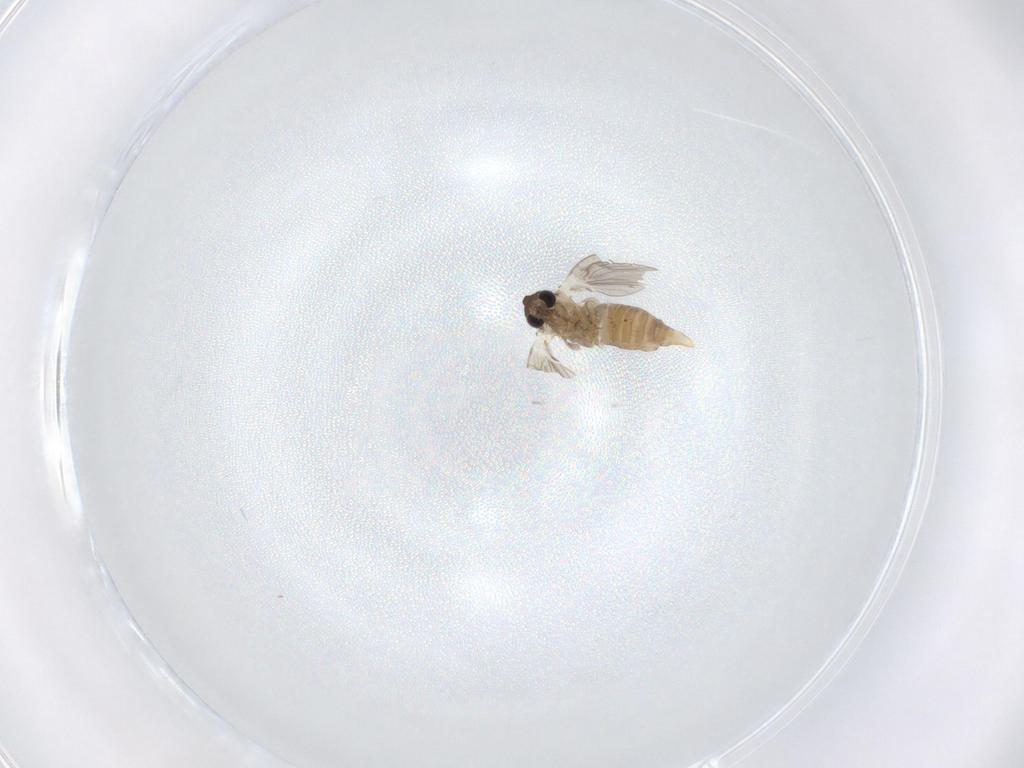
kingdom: Animalia
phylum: Arthropoda
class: Insecta
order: Diptera
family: Psychodidae
